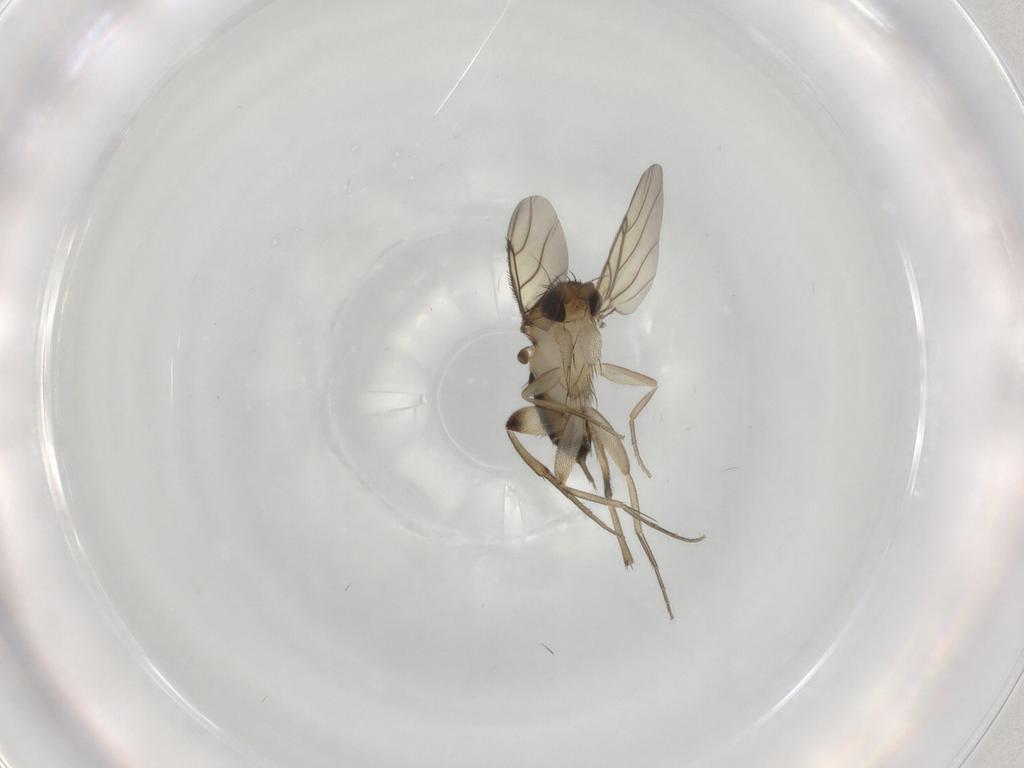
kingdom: Animalia
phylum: Arthropoda
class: Insecta
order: Diptera
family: Phoridae
